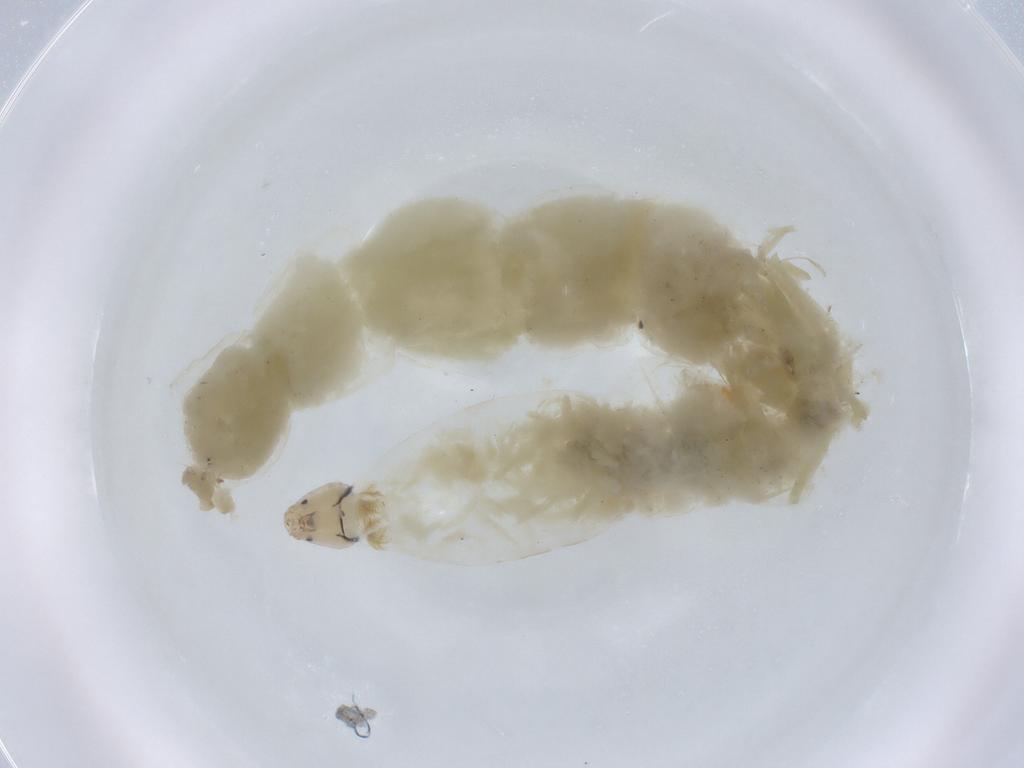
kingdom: Animalia
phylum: Arthropoda
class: Insecta
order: Diptera
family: Chironomidae
